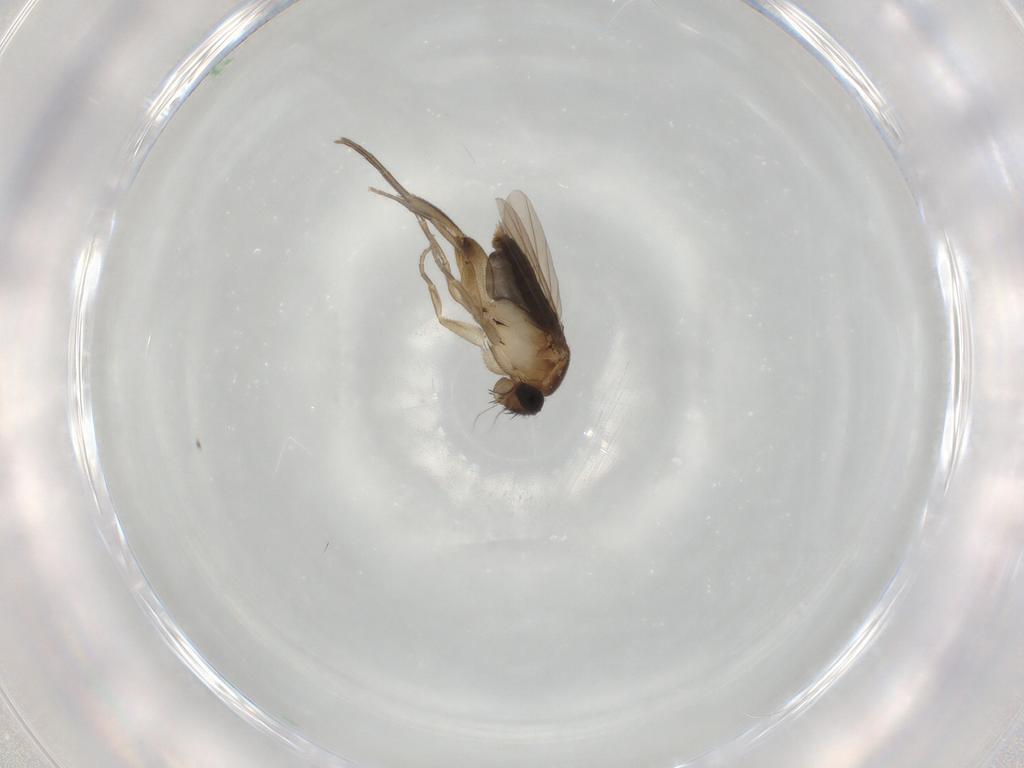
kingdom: Animalia
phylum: Arthropoda
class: Insecta
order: Diptera
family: Phoridae
